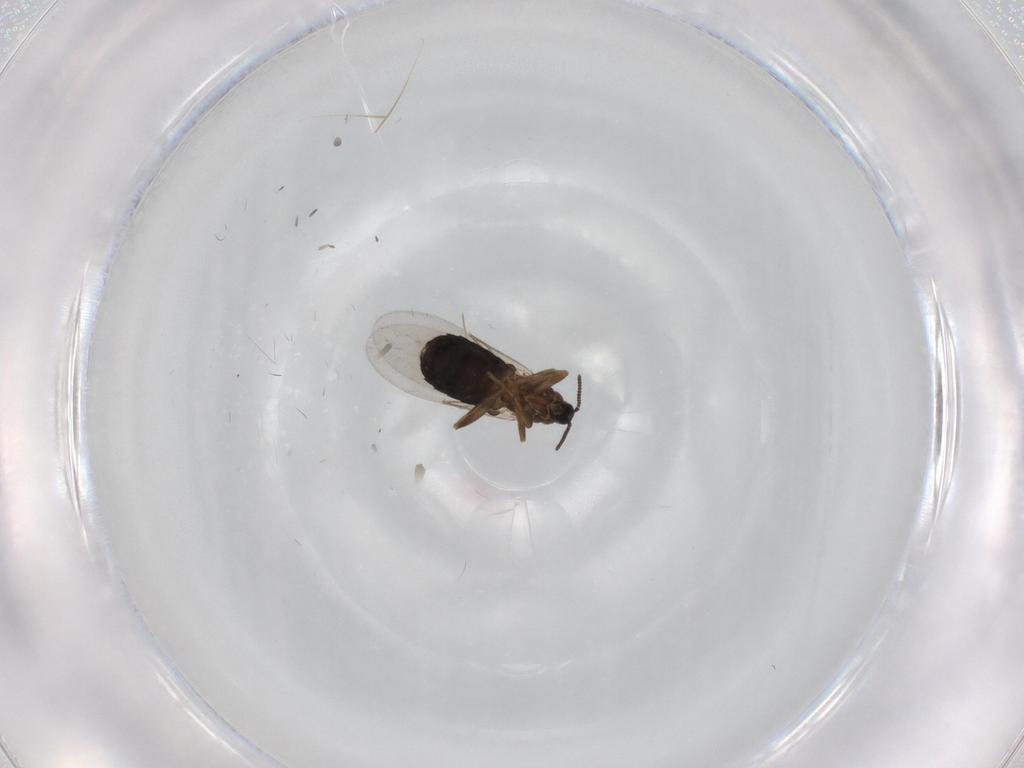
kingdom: Animalia
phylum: Arthropoda
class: Insecta
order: Diptera
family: Scatopsidae
